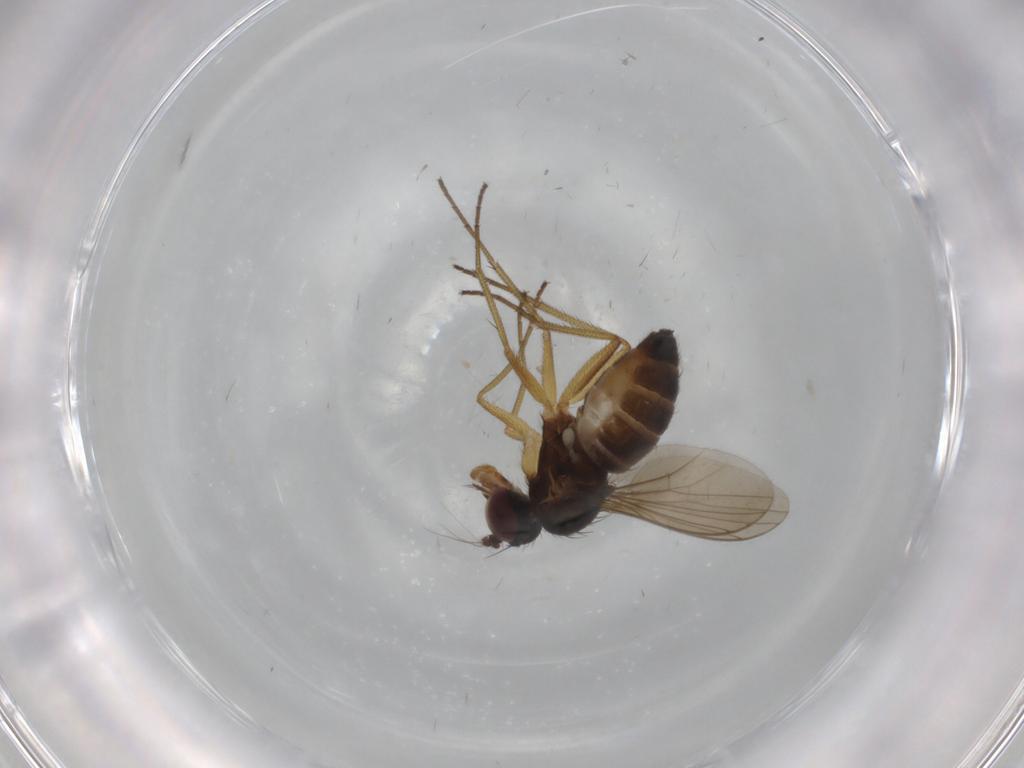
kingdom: Animalia
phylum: Arthropoda
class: Insecta
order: Diptera
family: Dolichopodidae
